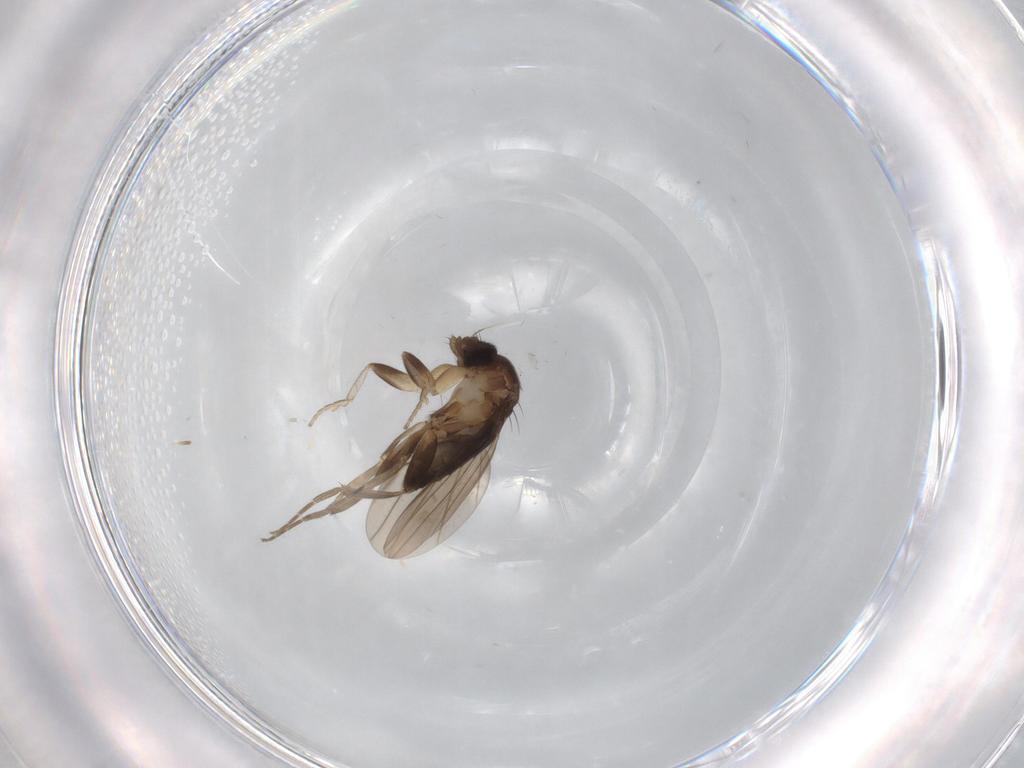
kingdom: Animalia
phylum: Arthropoda
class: Insecta
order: Diptera
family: Phoridae
